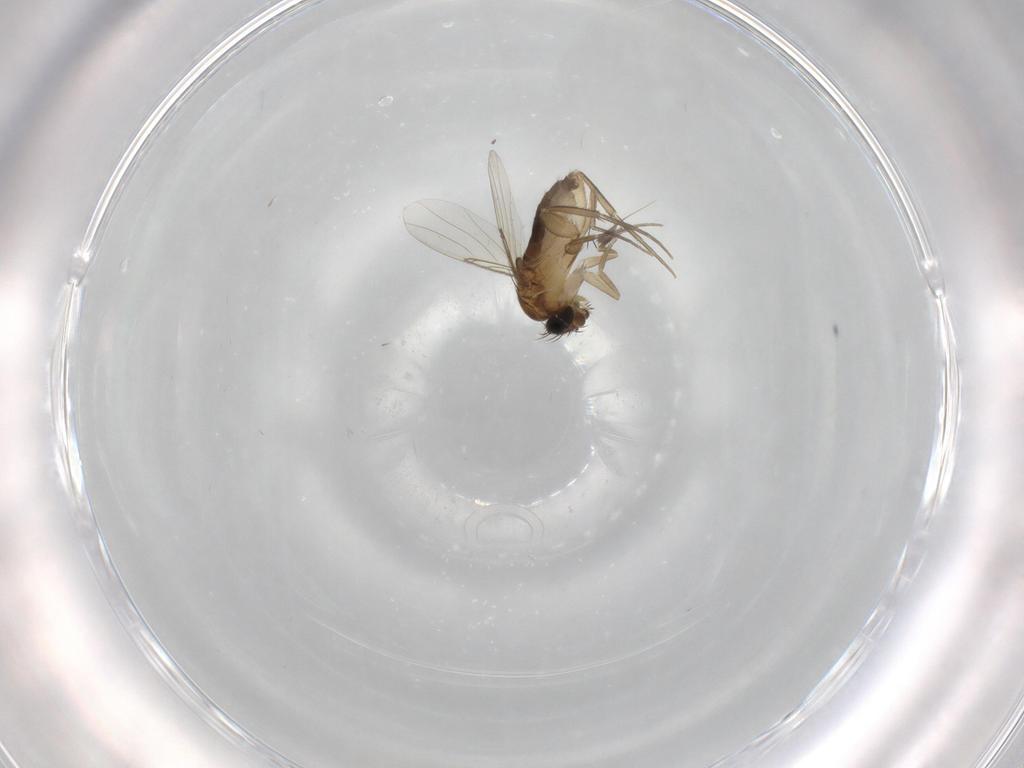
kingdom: Animalia
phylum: Arthropoda
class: Insecta
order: Diptera
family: Phoridae
